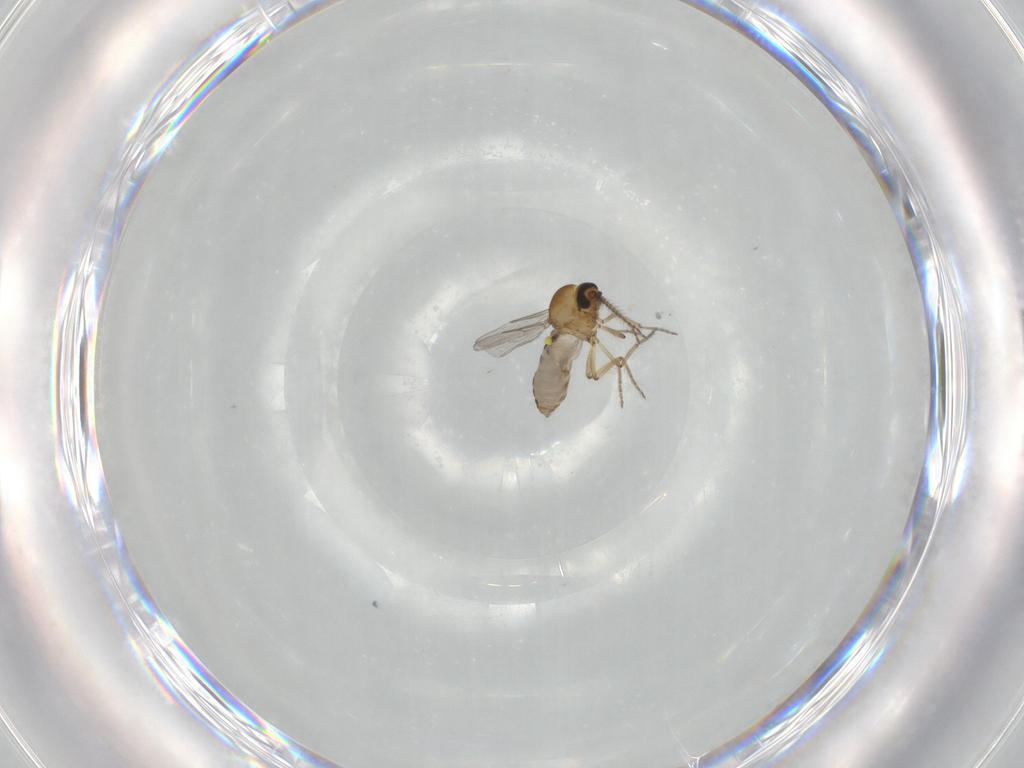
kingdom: Animalia
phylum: Arthropoda
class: Insecta
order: Diptera
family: Ceratopogonidae
